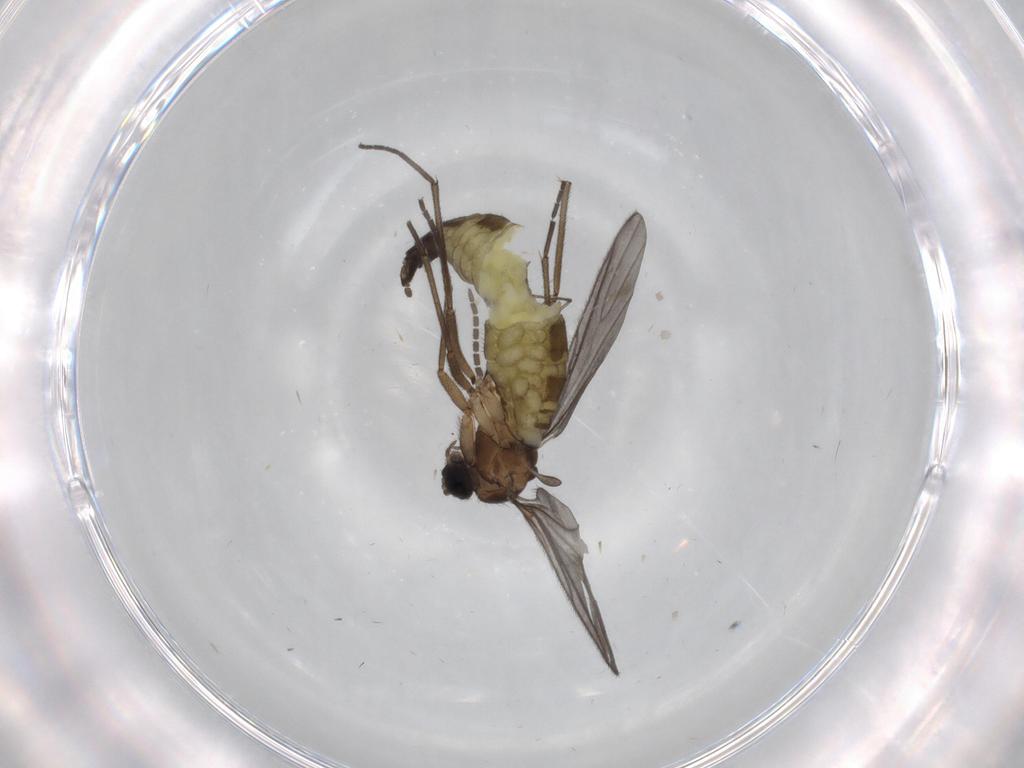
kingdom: Animalia
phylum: Arthropoda
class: Insecta
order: Diptera
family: Sciaridae
